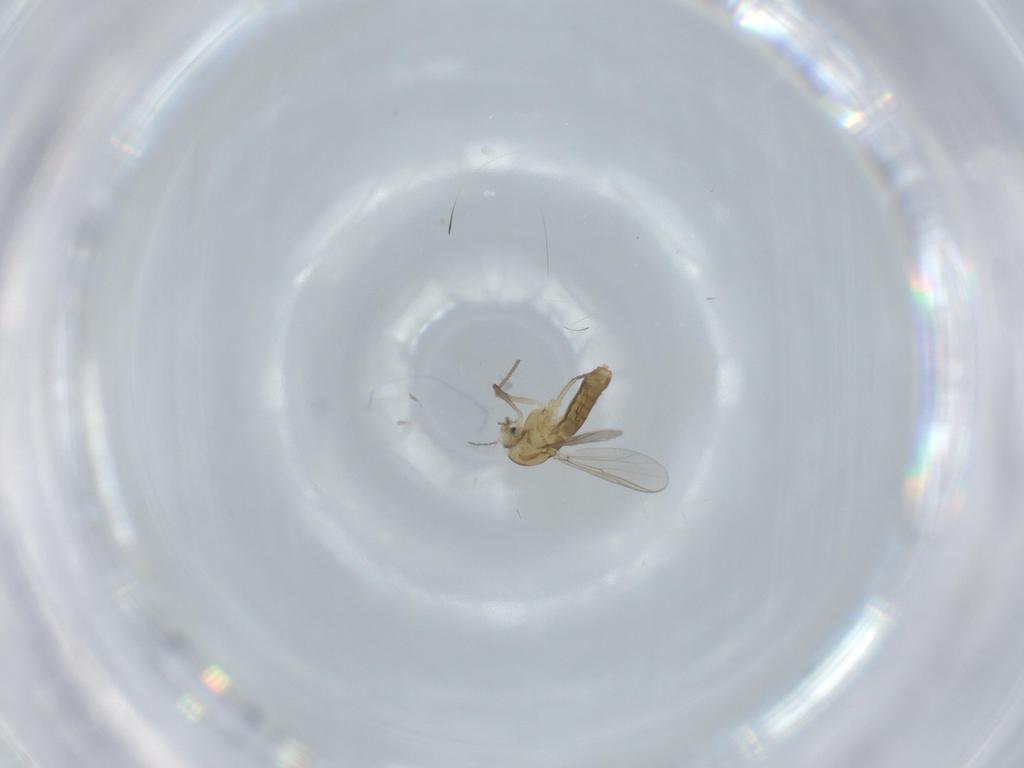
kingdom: Animalia
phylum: Arthropoda
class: Insecta
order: Diptera
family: Chironomidae
